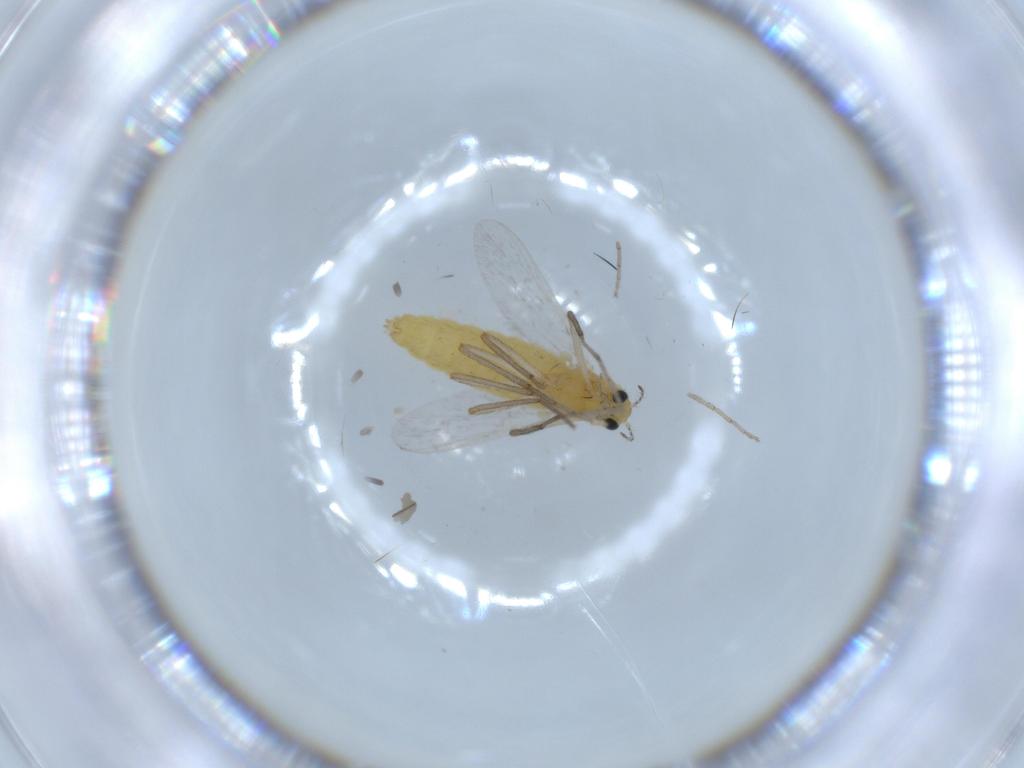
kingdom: Animalia
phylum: Arthropoda
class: Insecta
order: Diptera
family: Chironomidae
